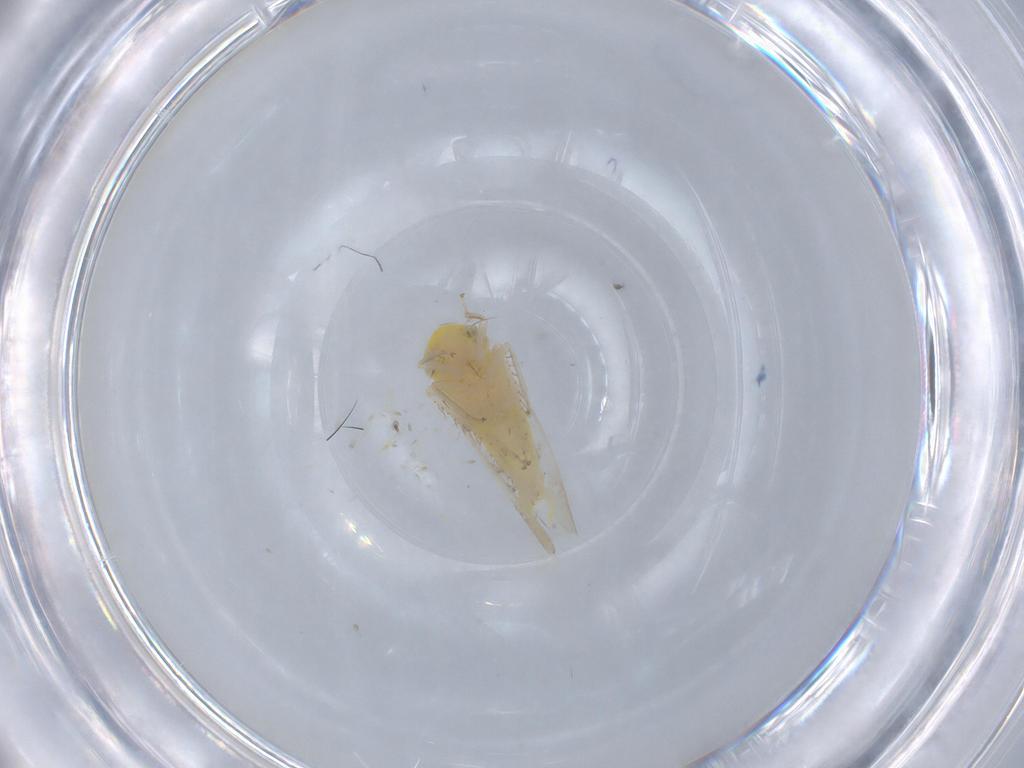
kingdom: Animalia
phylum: Arthropoda
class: Insecta
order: Hemiptera
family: Cicadellidae
